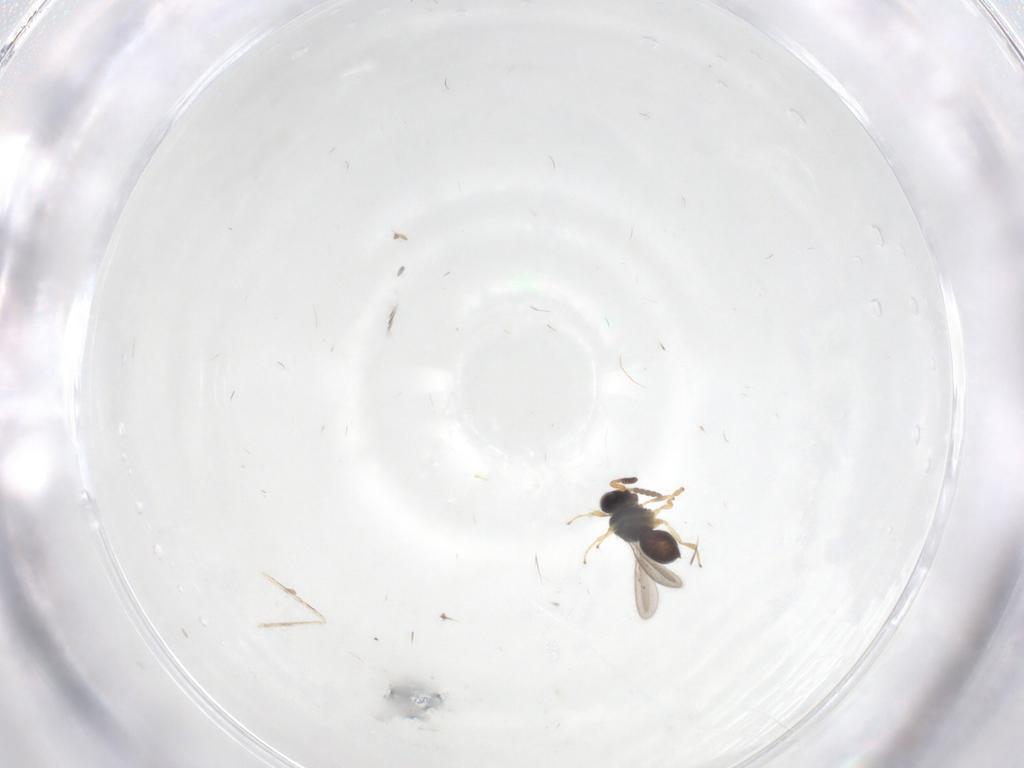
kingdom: Animalia
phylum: Arthropoda
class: Insecta
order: Hymenoptera
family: Scelionidae
